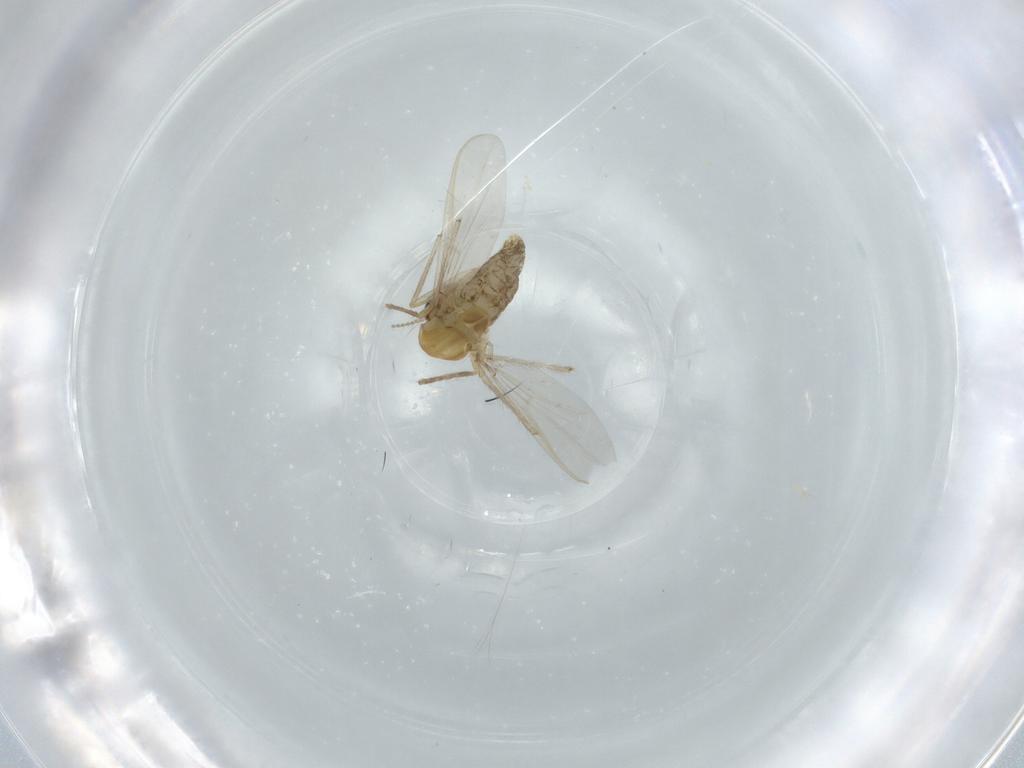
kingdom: Animalia
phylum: Arthropoda
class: Insecta
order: Diptera
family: Chironomidae
